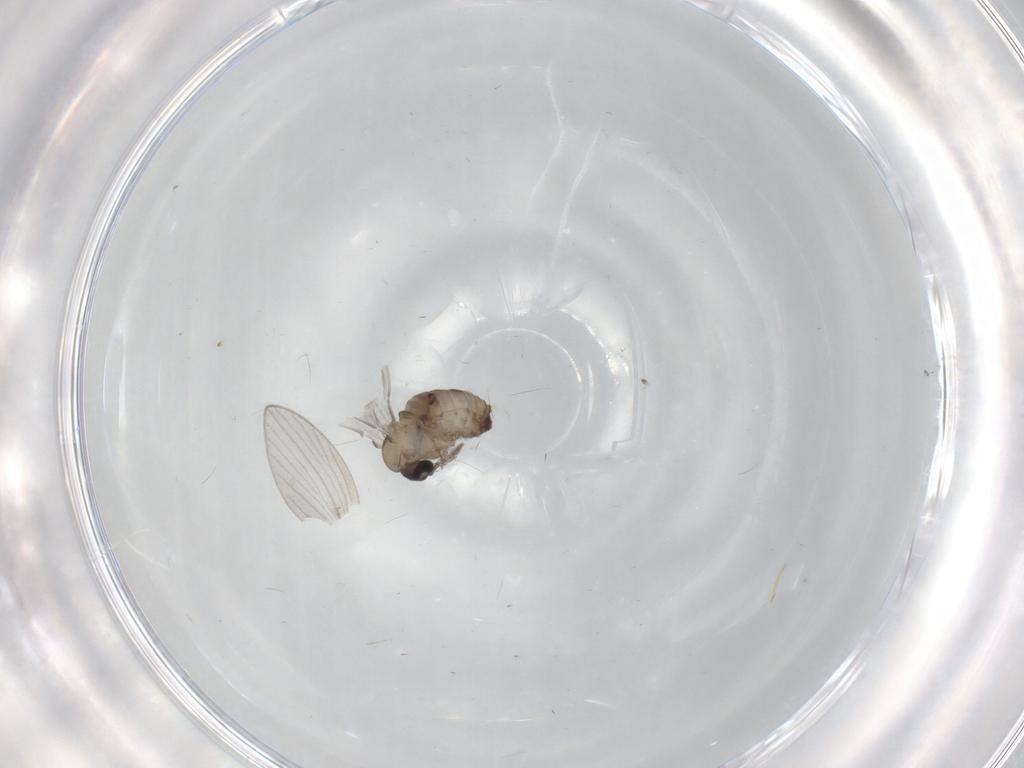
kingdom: Animalia
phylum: Arthropoda
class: Insecta
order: Diptera
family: Psychodidae
